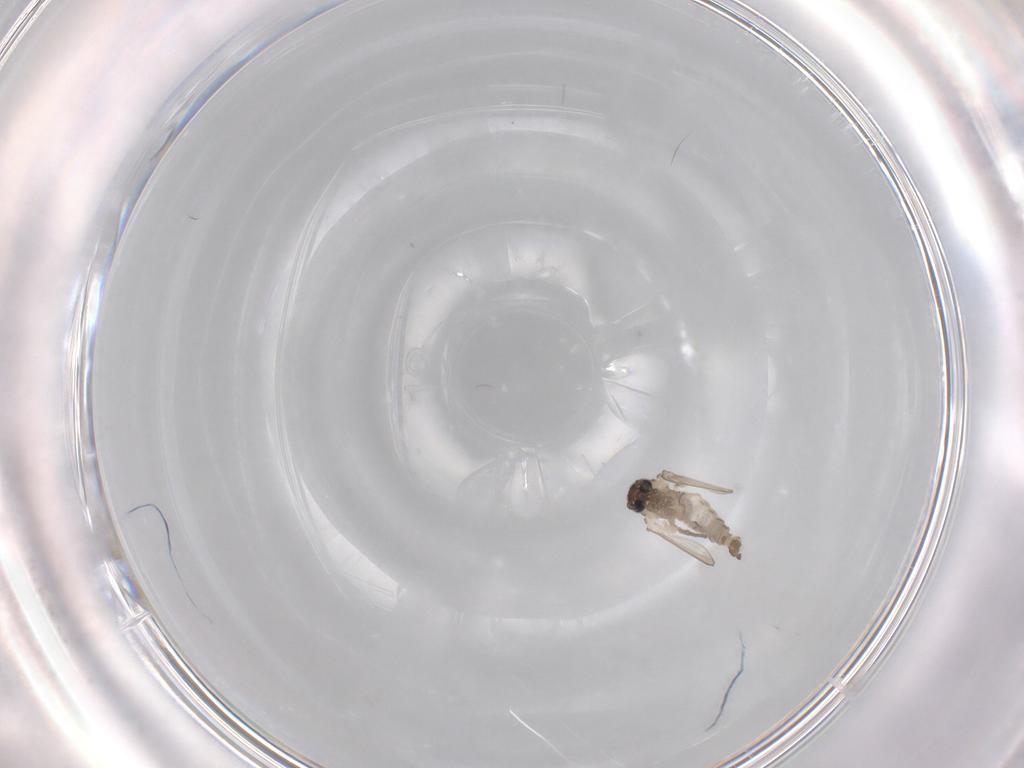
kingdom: Animalia
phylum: Arthropoda
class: Insecta
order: Diptera
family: Psychodidae
